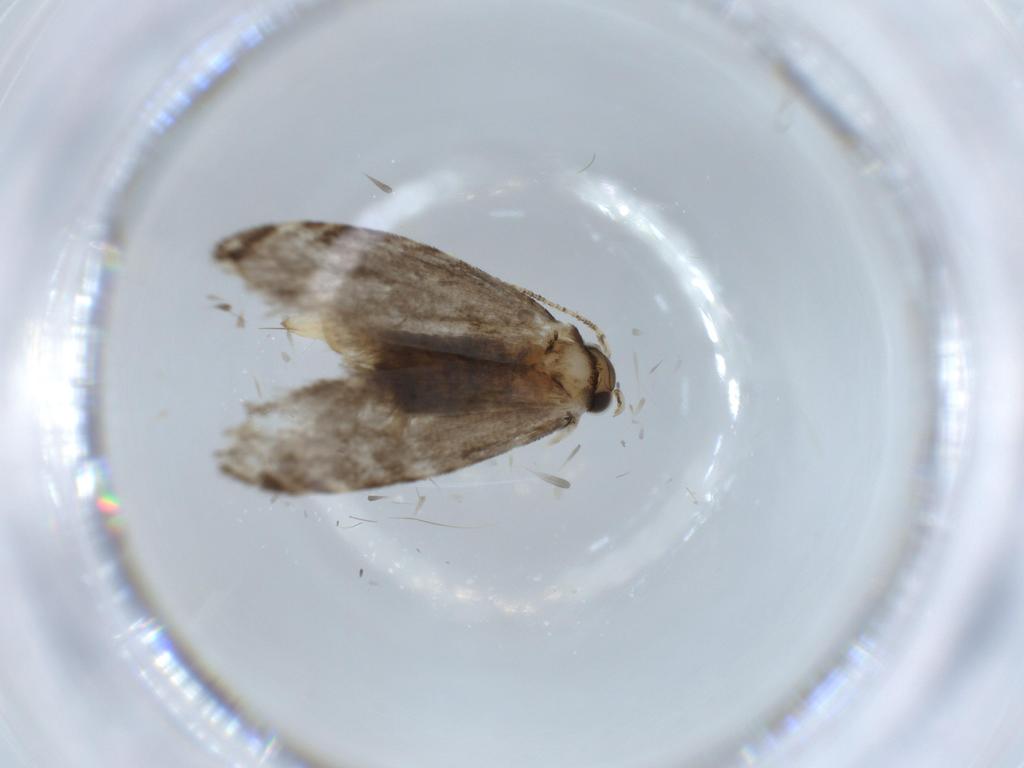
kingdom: Animalia
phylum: Arthropoda
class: Insecta
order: Lepidoptera
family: Tineidae
